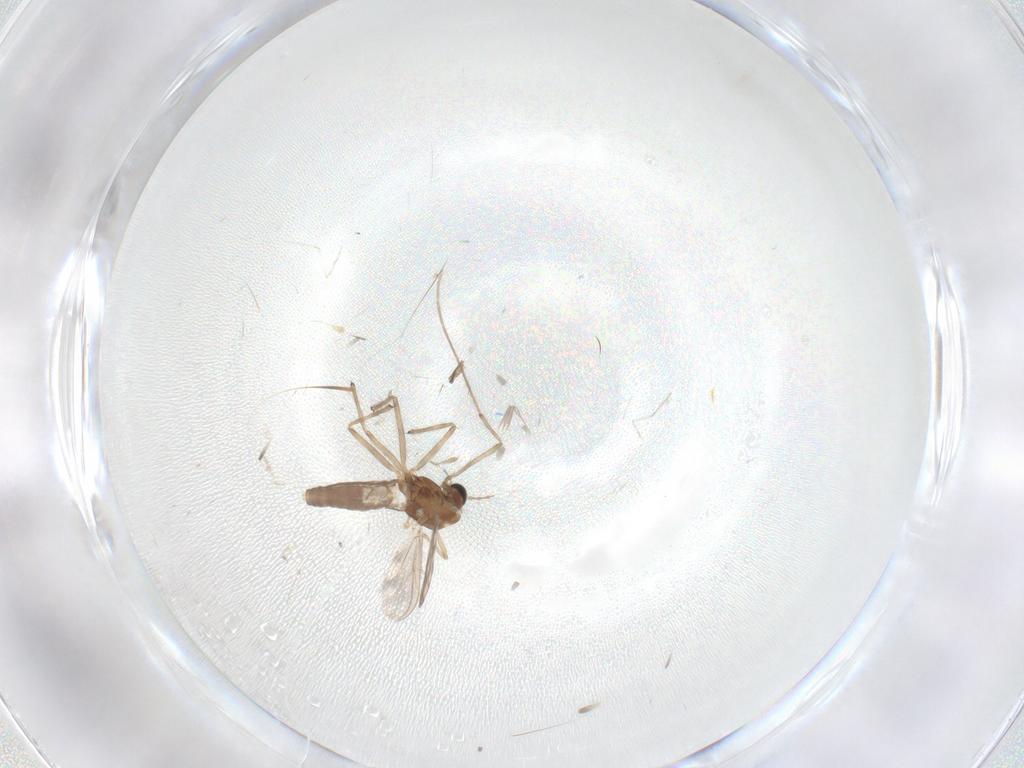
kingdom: Animalia
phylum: Arthropoda
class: Insecta
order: Diptera
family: Chironomidae
